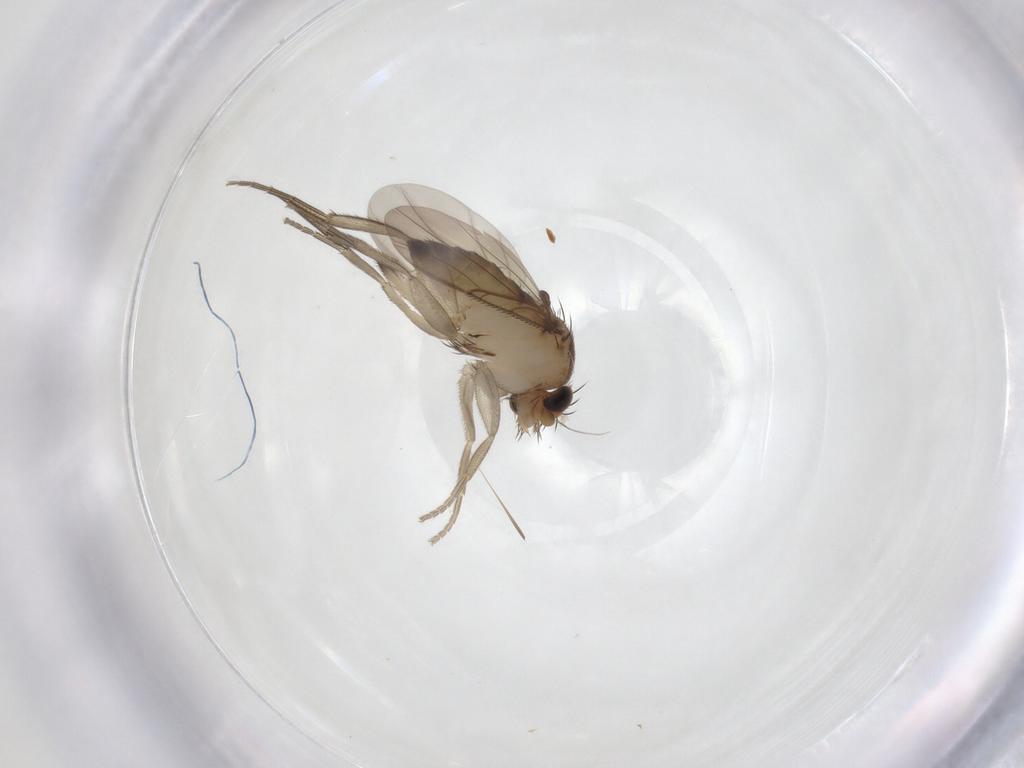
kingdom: Animalia
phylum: Arthropoda
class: Insecta
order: Diptera
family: Phoridae
